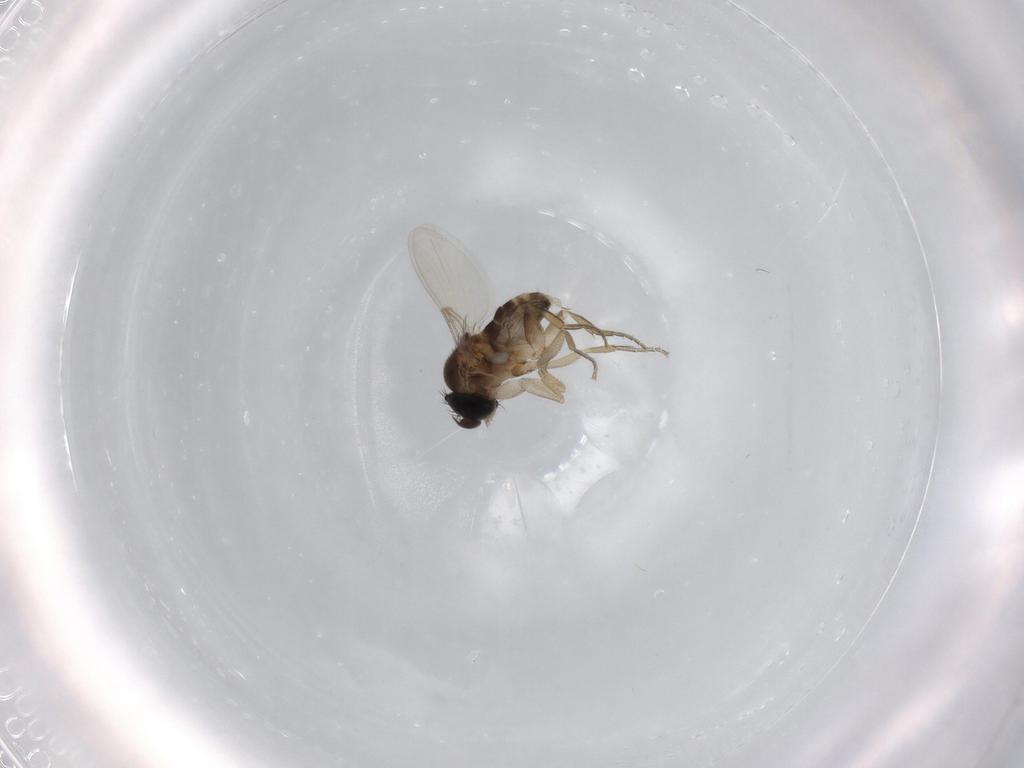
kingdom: Animalia
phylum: Arthropoda
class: Insecta
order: Diptera
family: Phoridae
